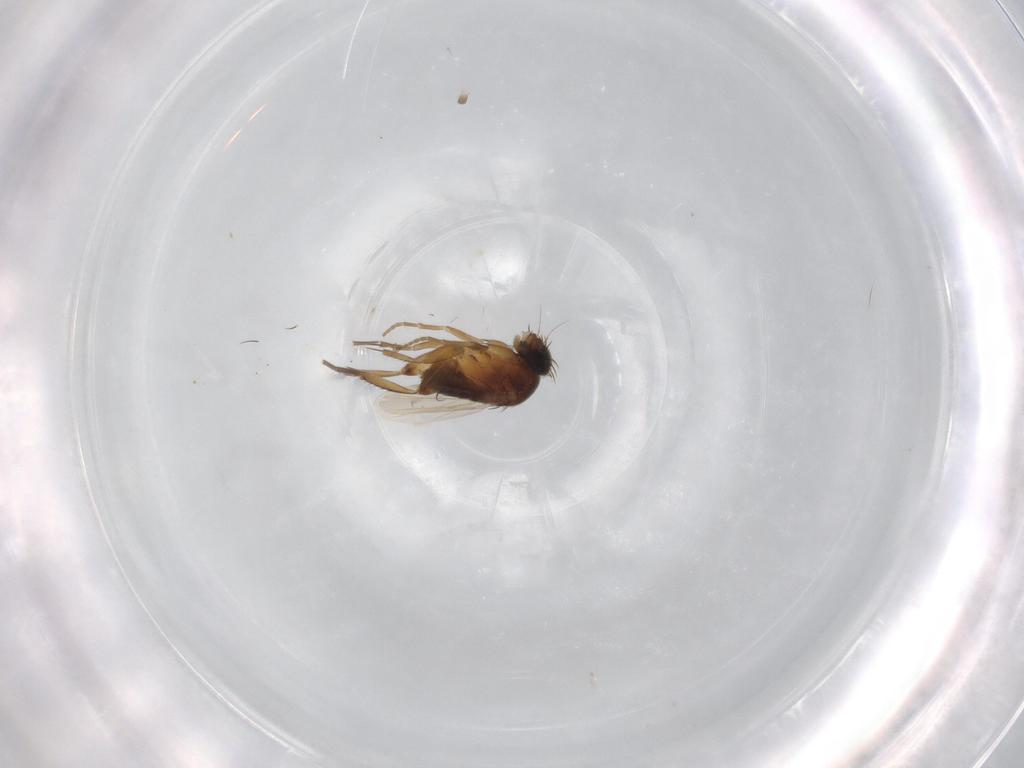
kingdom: Animalia
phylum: Arthropoda
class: Insecta
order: Diptera
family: Phoridae
